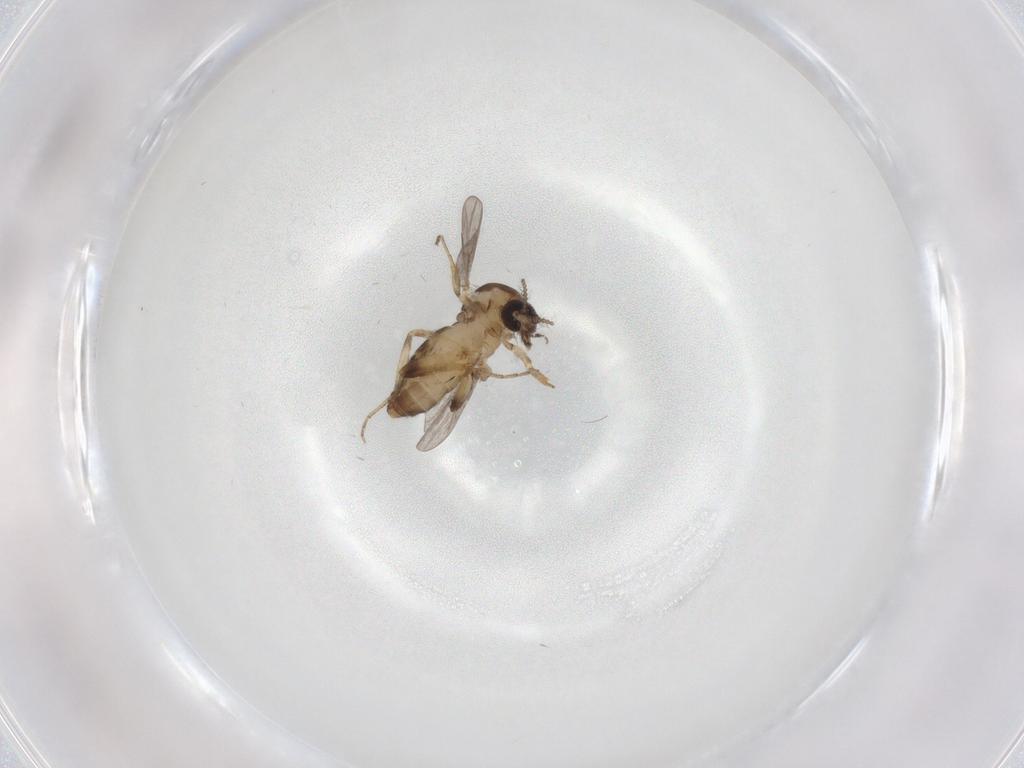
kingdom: Animalia
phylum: Arthropoda
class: Insecta
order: Diptera
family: Ceratopogonidae
